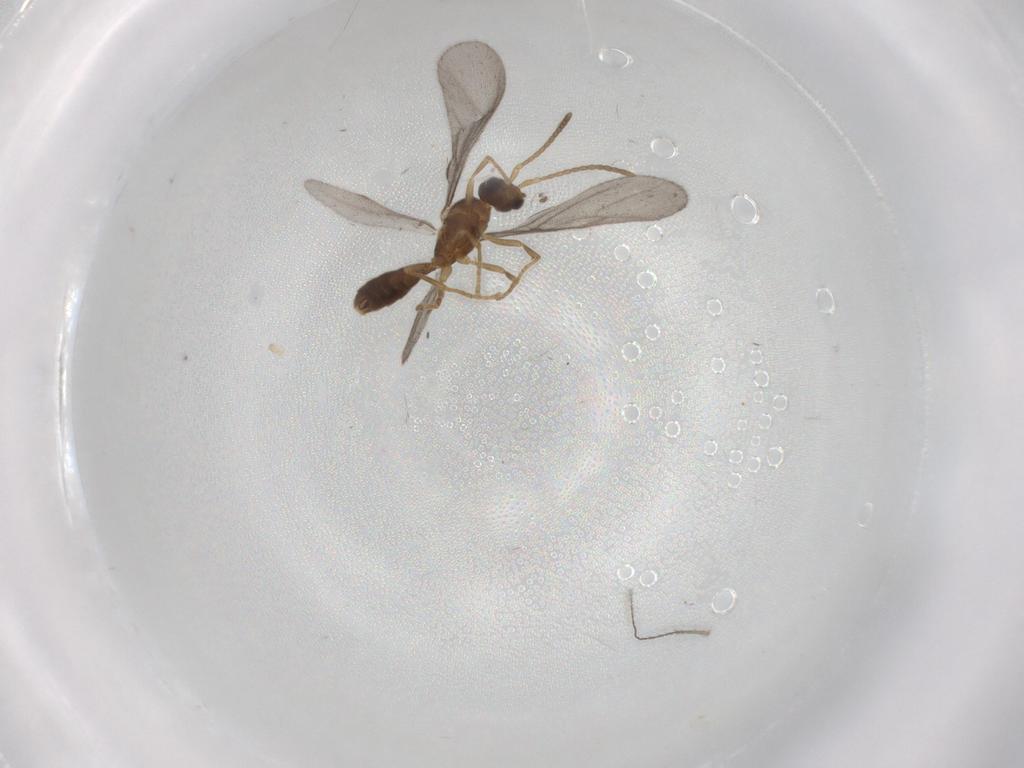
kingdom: Animalia
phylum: Arthropoda
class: Insecta
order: Hymenoptera
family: Formicidae
